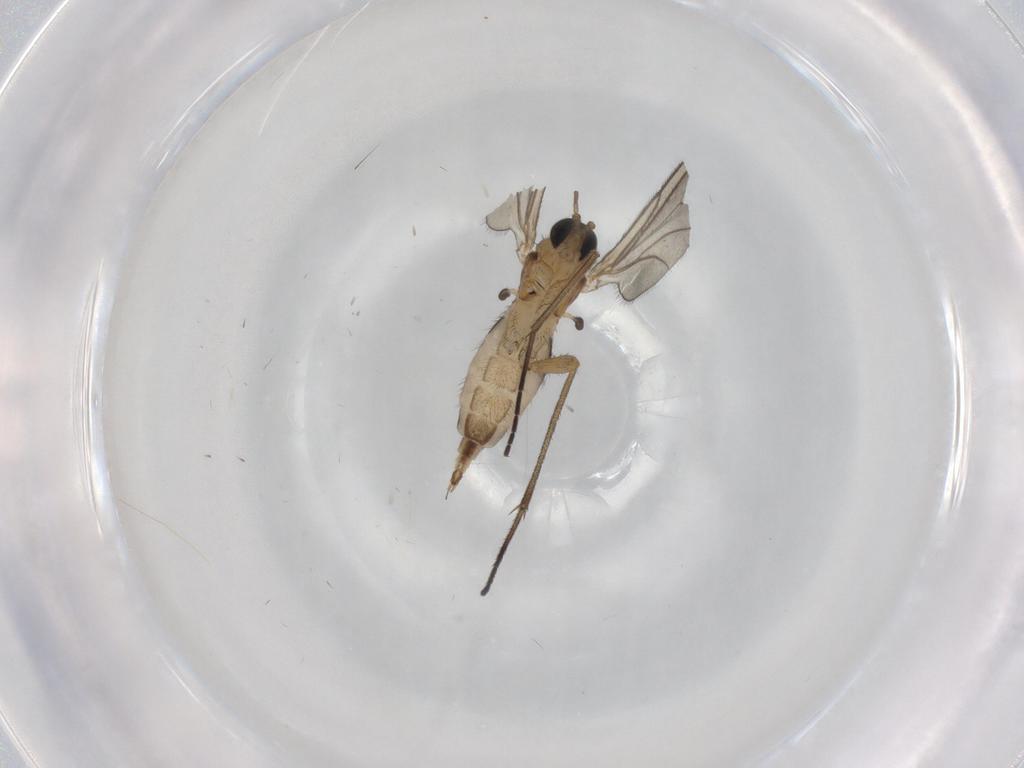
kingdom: Animalia
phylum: Arthropoda
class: Insecta
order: Diptera
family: Sciaridae
